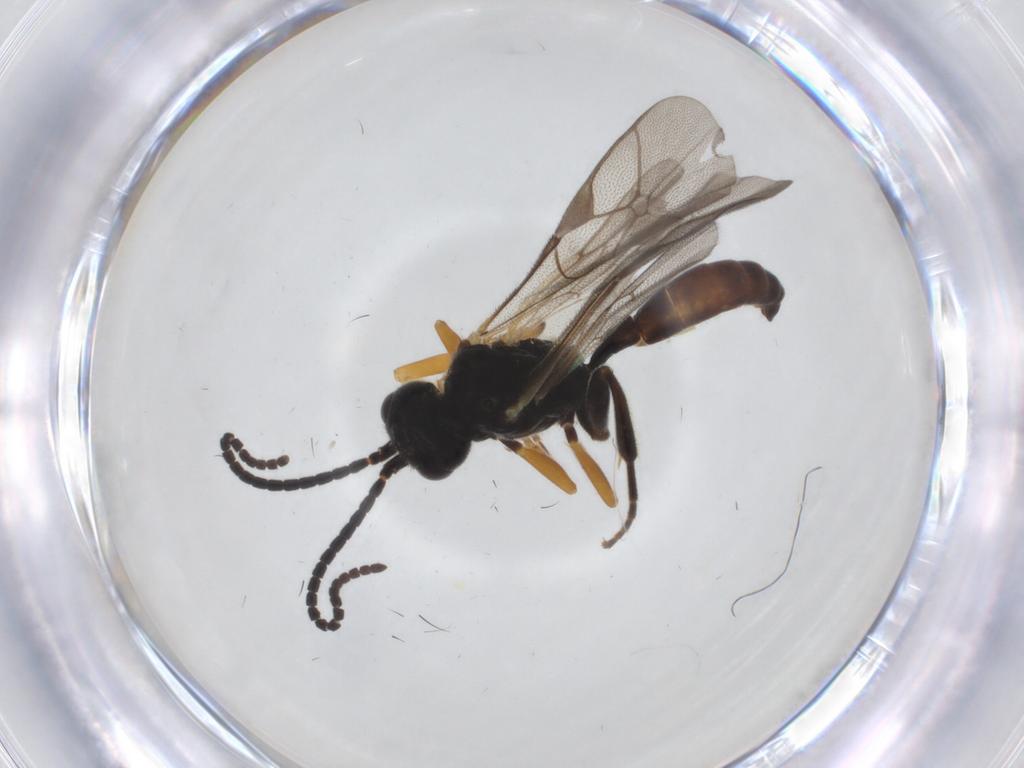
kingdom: Animalia
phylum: Arthropoda
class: Insecta
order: Hymenoptera
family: Ichneumonidae
